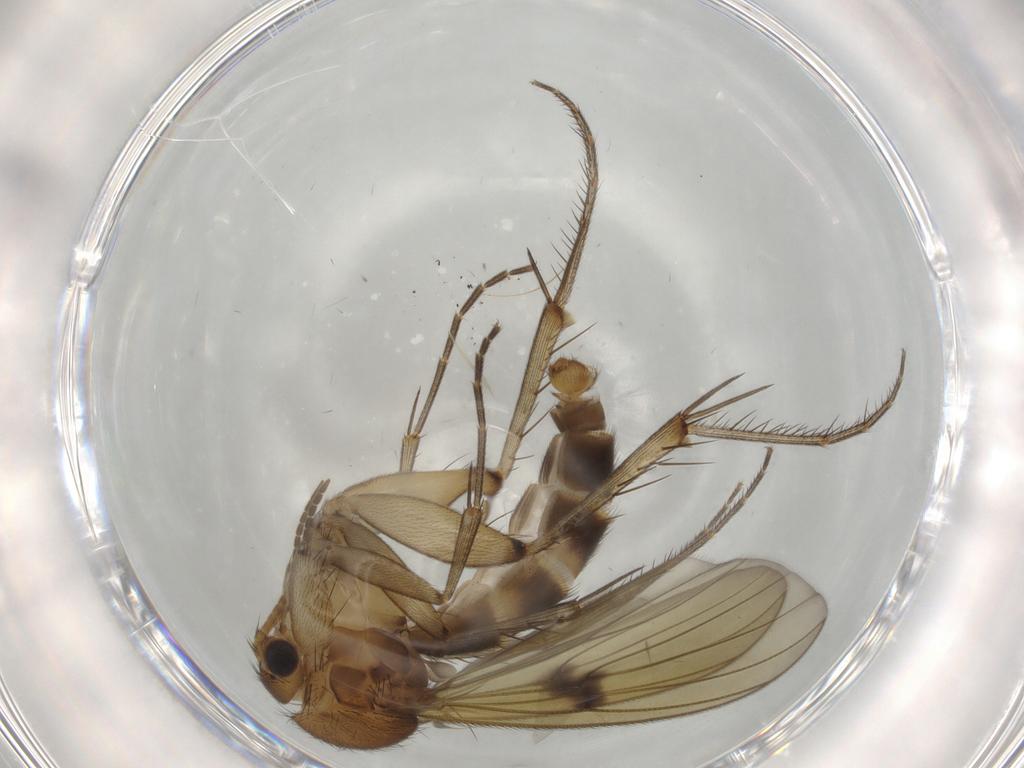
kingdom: Animalia
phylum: Arthropoda
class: Insecta
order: Diptera
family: Mycetophilidae
